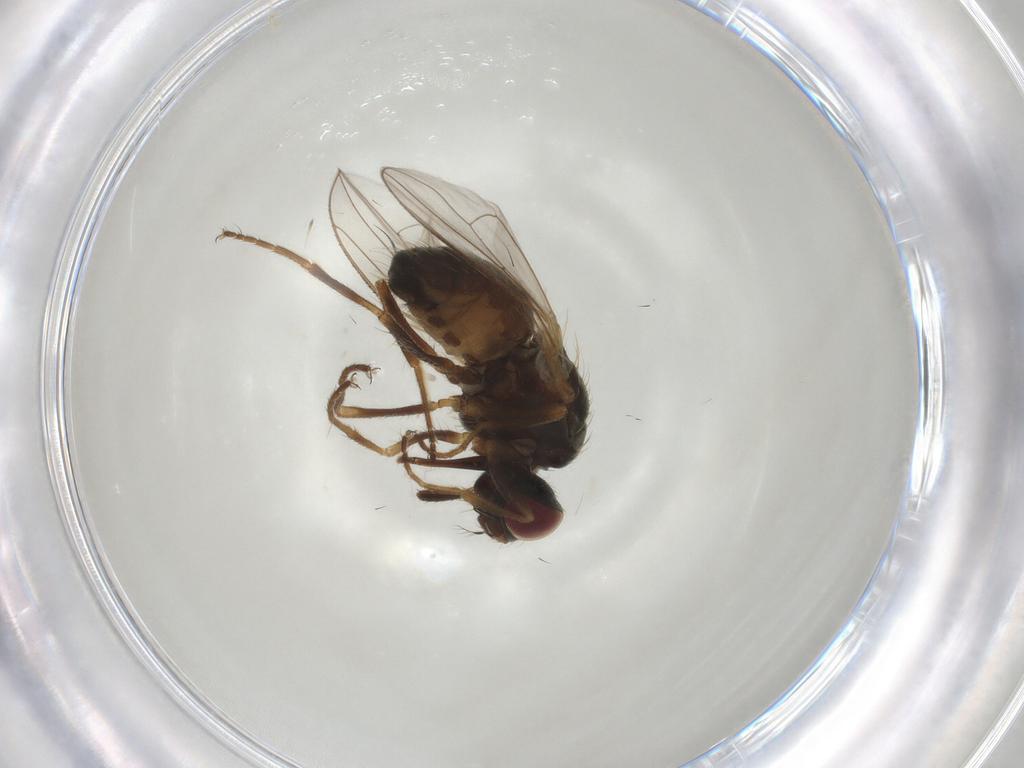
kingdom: Animalia
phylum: Arthropoda
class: Insecta
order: Diptera
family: Muscidae
